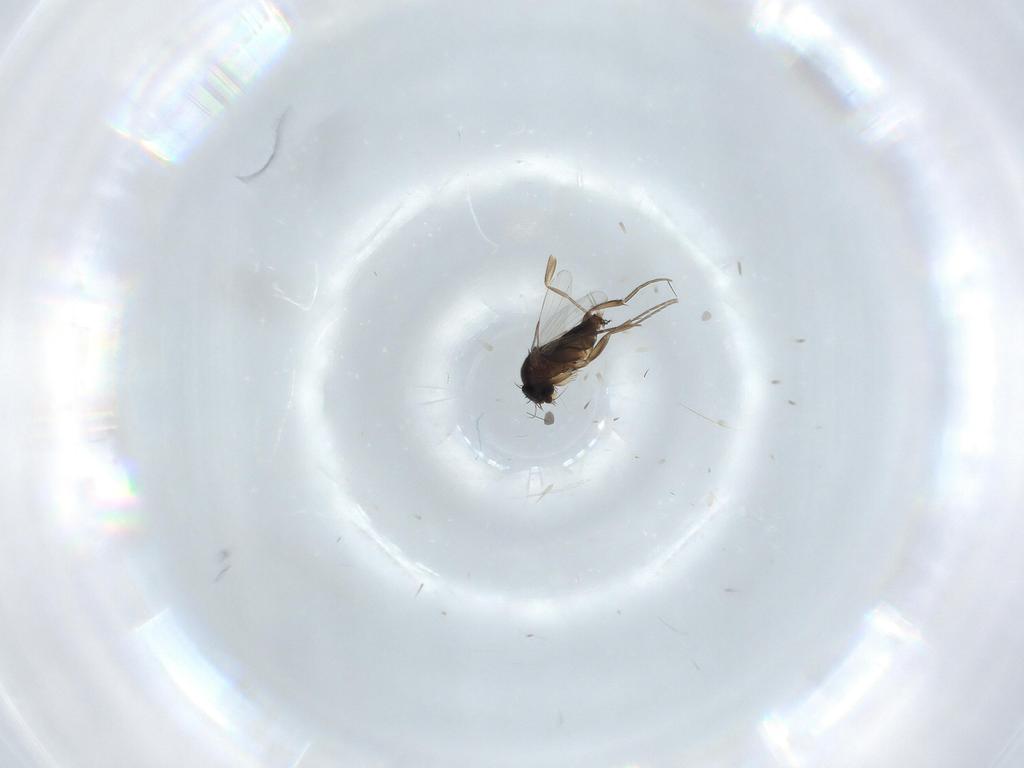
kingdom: Animalia
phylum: Arthropoda
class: Insecta
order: Diptera
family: Phoridae
